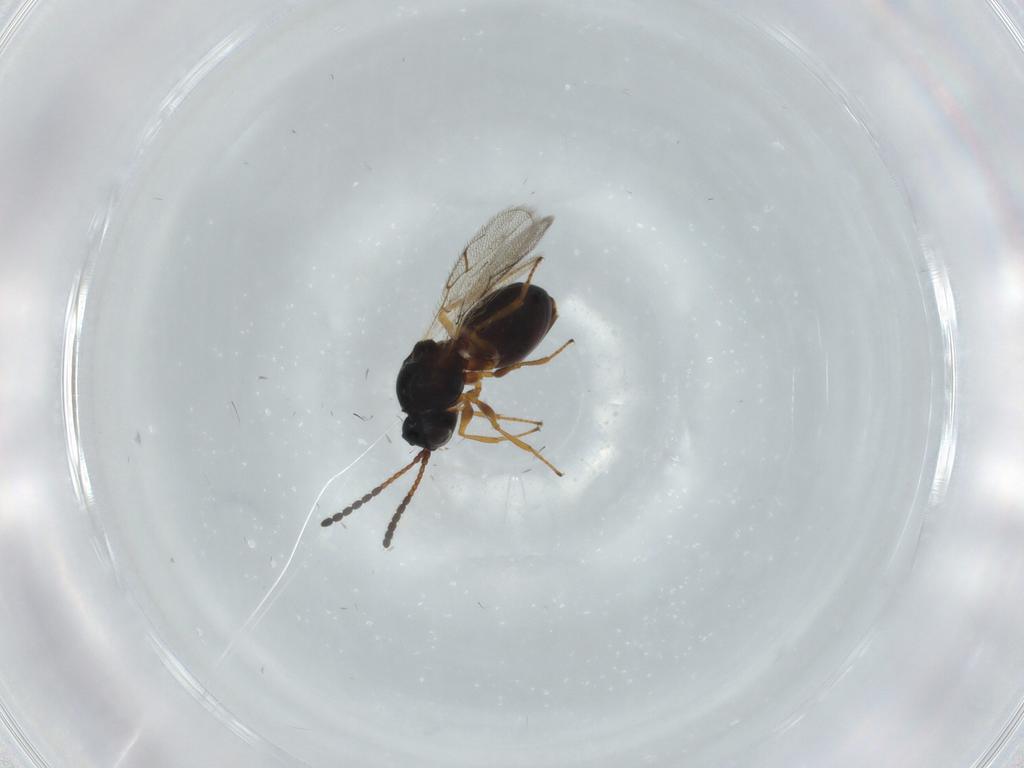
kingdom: Animalia
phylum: Arthropoda
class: Insecta
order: Hymenoptera
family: Figitidae
